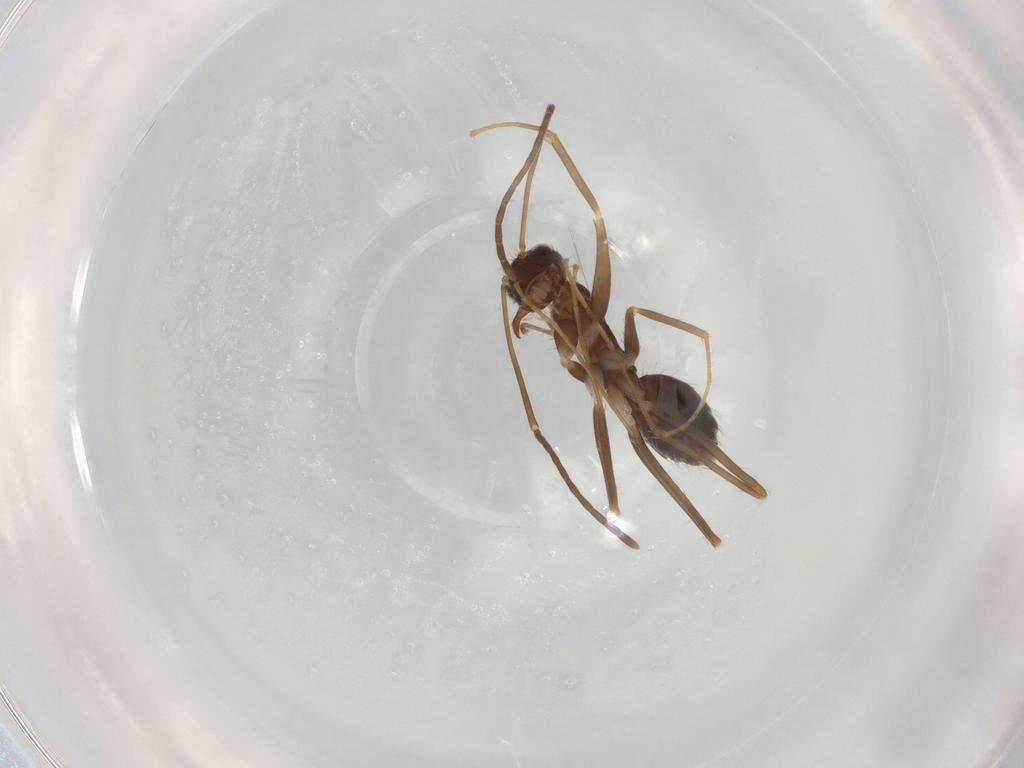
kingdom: Animalia
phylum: Arthropoda
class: Insecta
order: Hymenoptera
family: Formicidae
